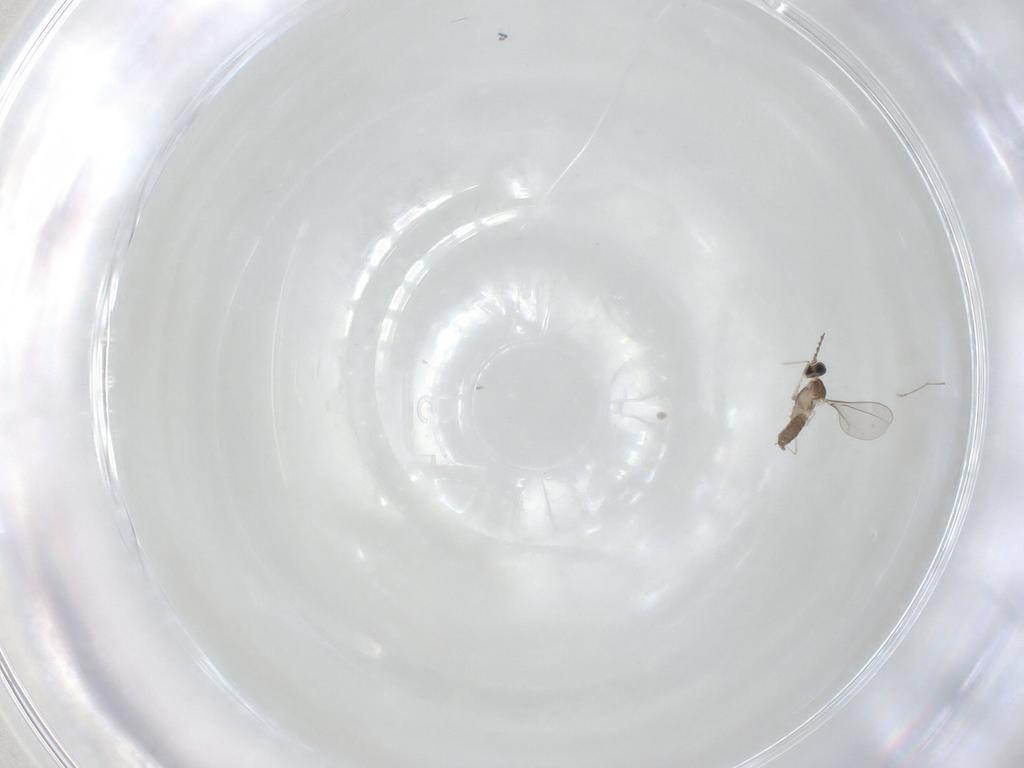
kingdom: Animalia
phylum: Arthropoda
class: Insecta
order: Diptera
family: Cecidomyiidae
